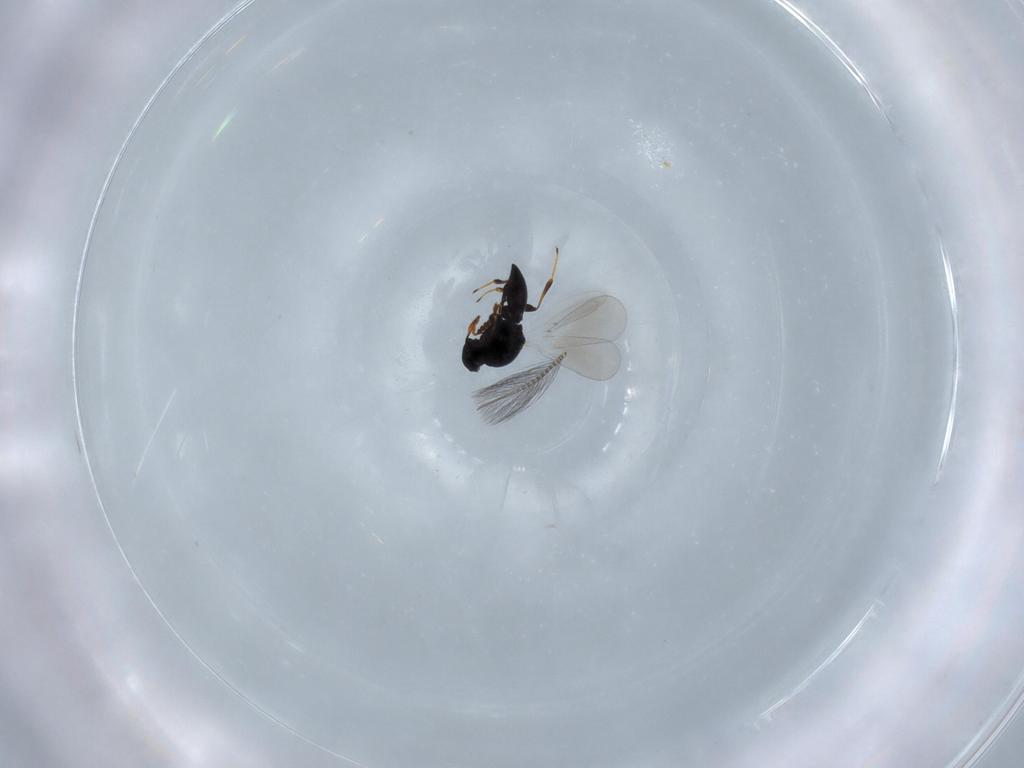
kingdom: Animalia
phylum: Arthropoda
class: Insecta
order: Hymenoptera
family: Platygastridae
